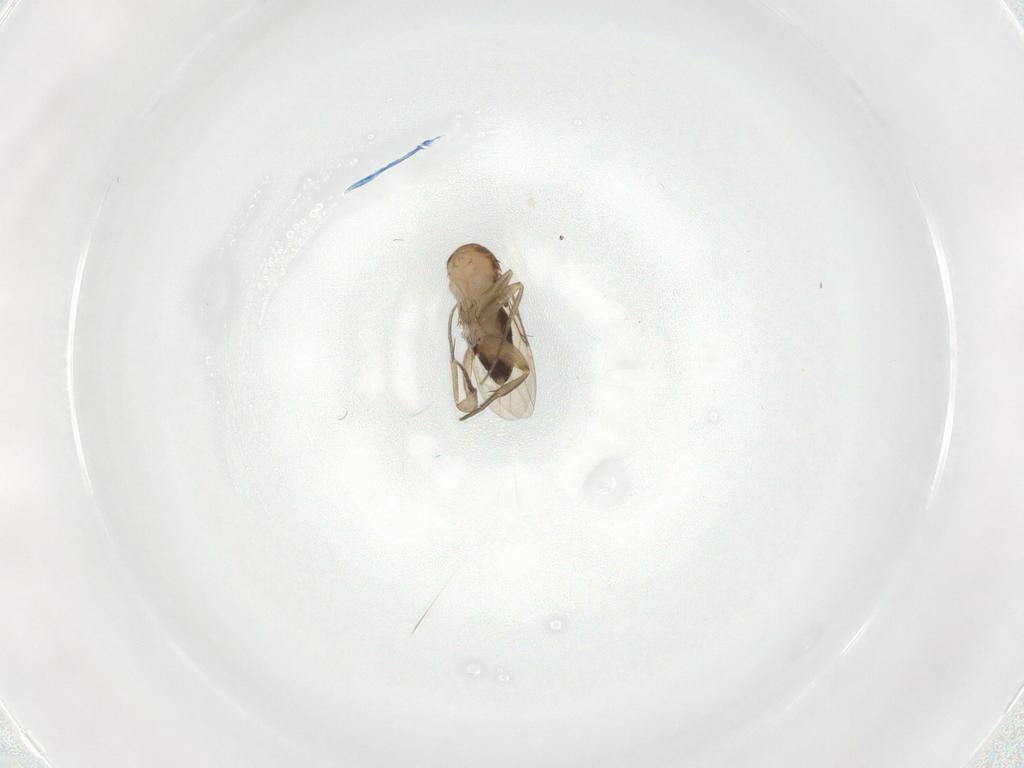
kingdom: Animalia
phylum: Arthropoda
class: Insecta
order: Diptera
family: Phoridae
